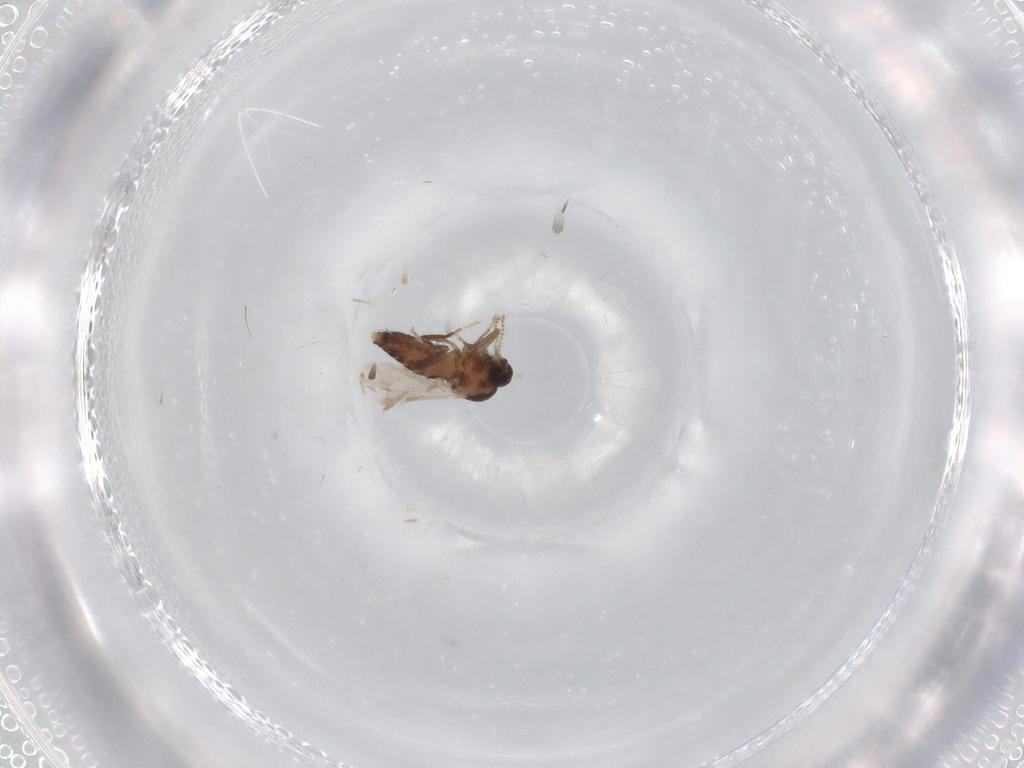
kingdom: Animalia
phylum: Arthropoda
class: Insecta
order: Diptera
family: Ceratopogonidae
